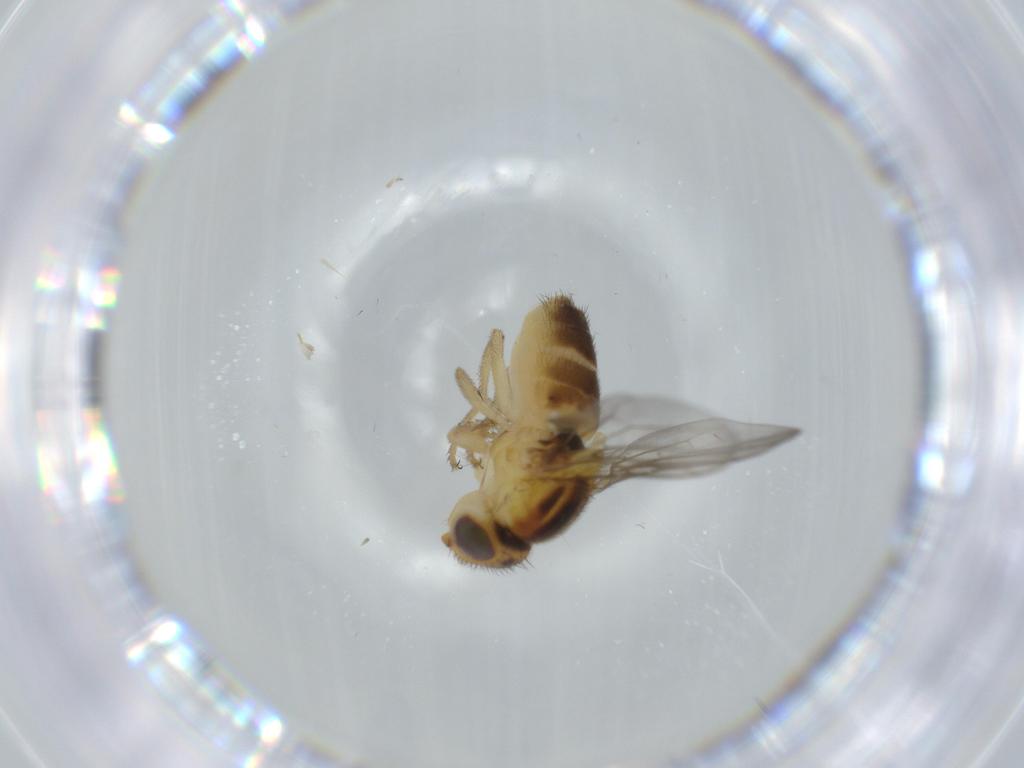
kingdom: Animalia
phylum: Arthropoda
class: Insecta
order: Diptera
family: Chloropidae
